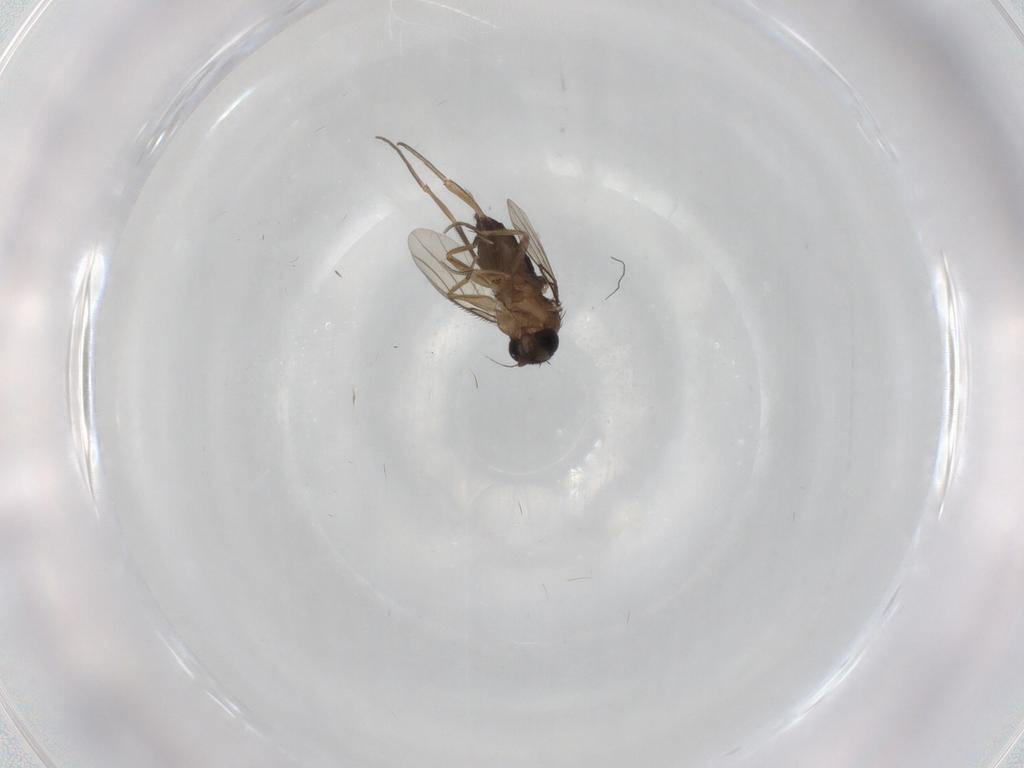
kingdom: Animalia
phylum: Arthropoda
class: Insecta
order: Diptera
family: Phoridae
